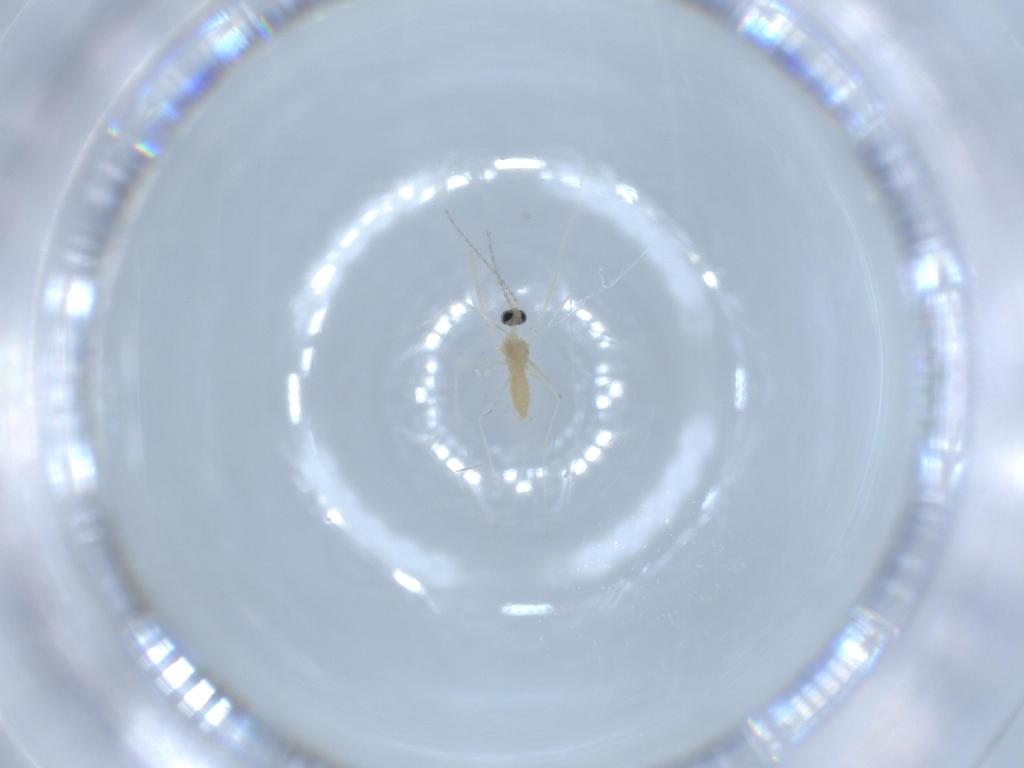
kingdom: Animalia
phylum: Arthropoda
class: Insecta
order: Diptera
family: Cecidomyiidae
